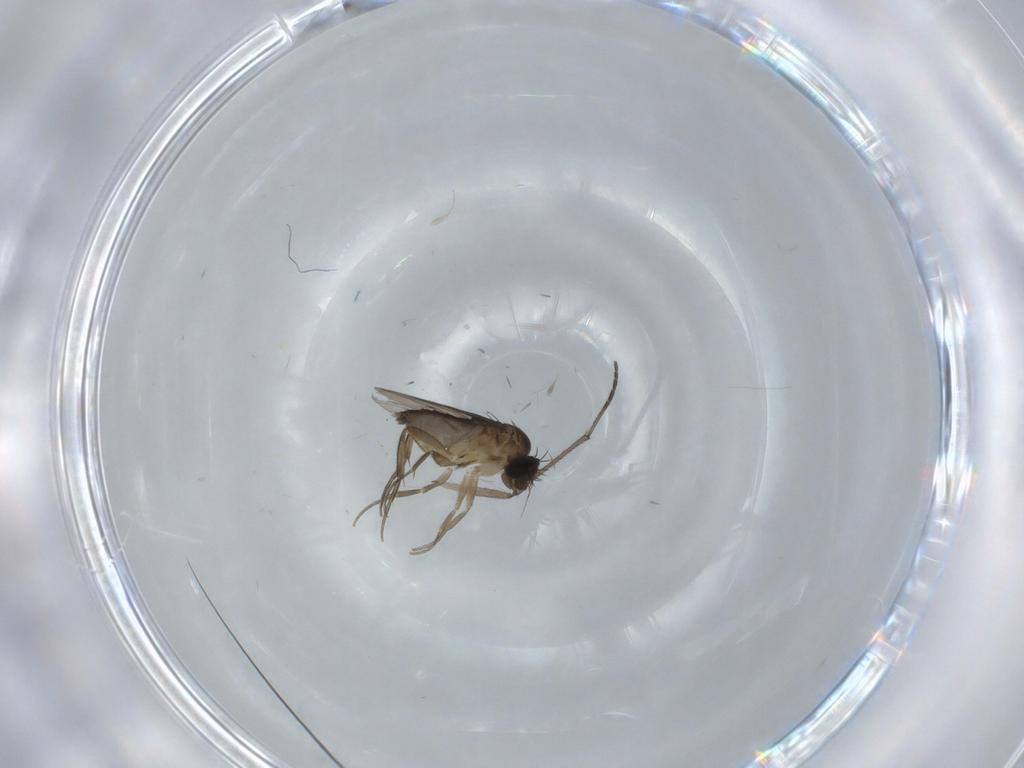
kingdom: Animalia
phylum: Arthropoda
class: Insecta
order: Diptera
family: Phoridae
